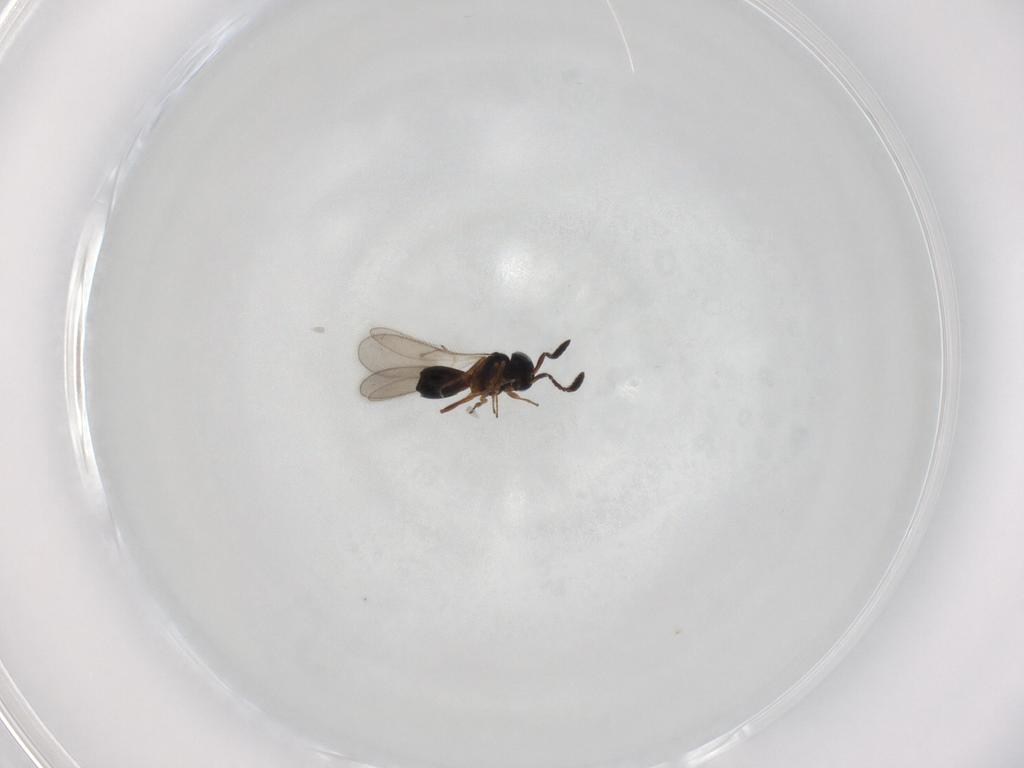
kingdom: Animalia
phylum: Arthropoda
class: Insecta
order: Hymenoptera
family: Scelionidae
